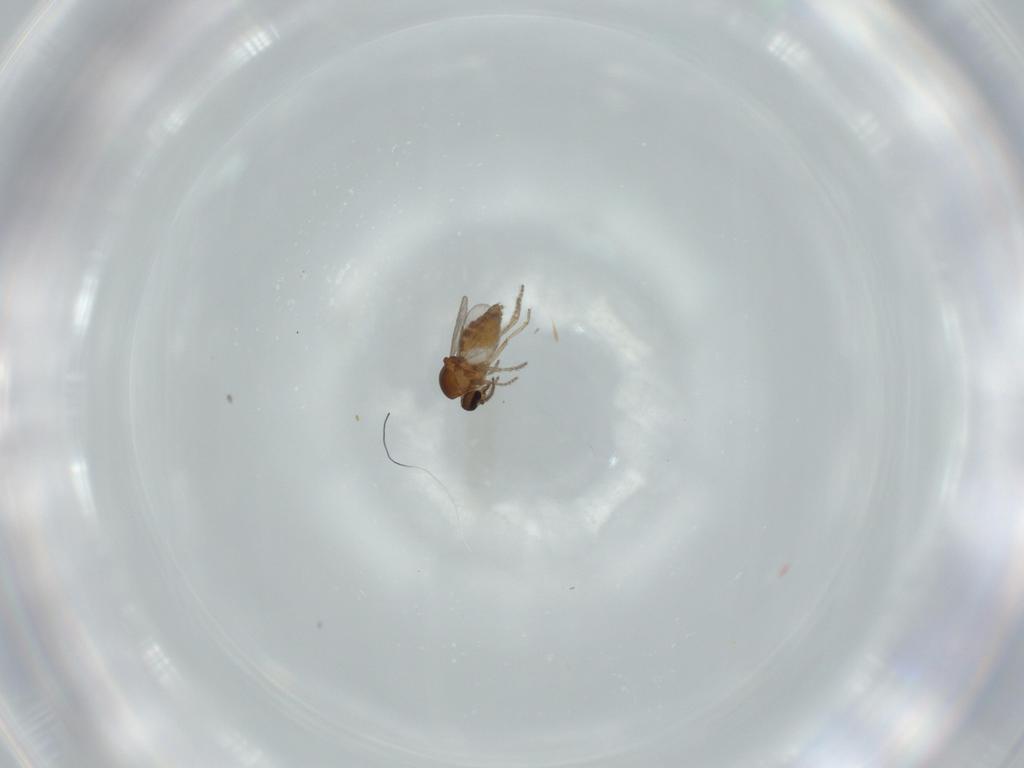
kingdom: Animalia
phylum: Arthropoda
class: Insecta
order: Diptera
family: Ceratopogonidae
